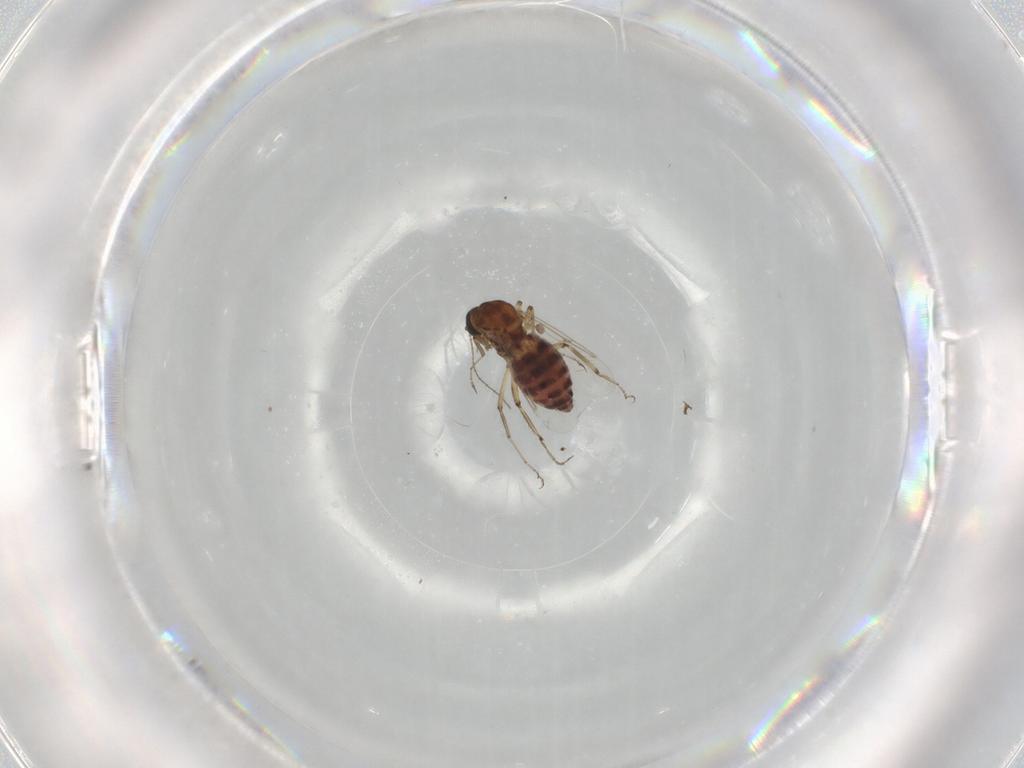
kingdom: Animalia
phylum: Arthropoda
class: Insecta
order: Diptera
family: Ceratopogonidae
